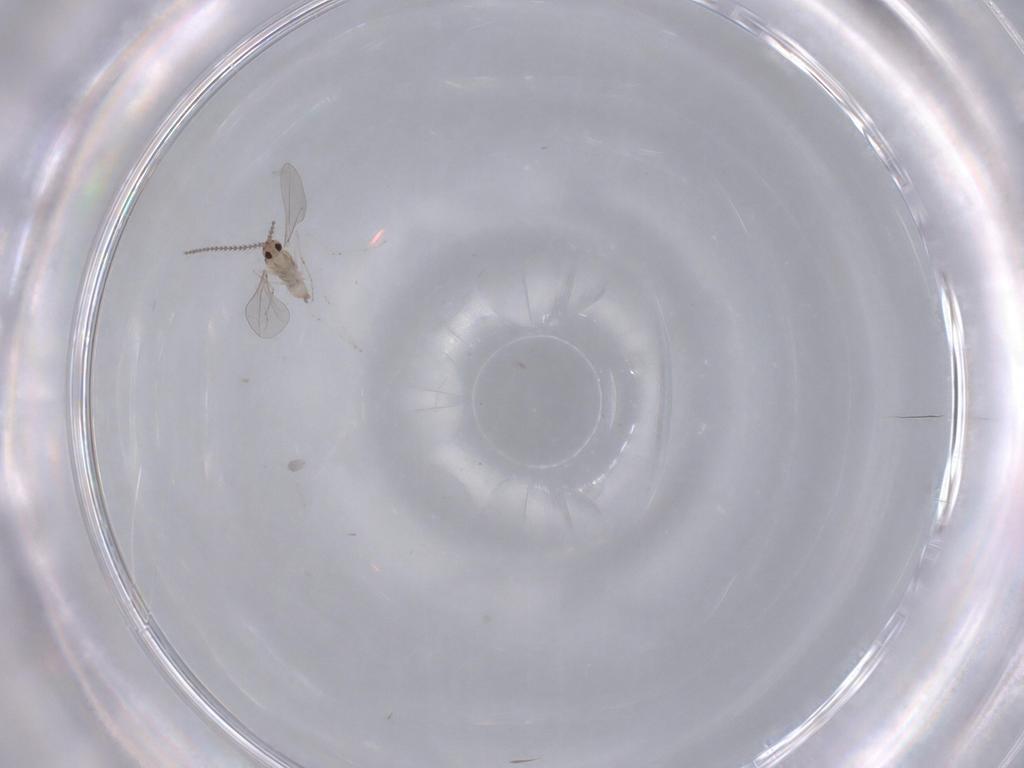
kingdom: Animalia
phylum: Arthropoda
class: Insecta
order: Diptera
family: Cecidomyiidae
